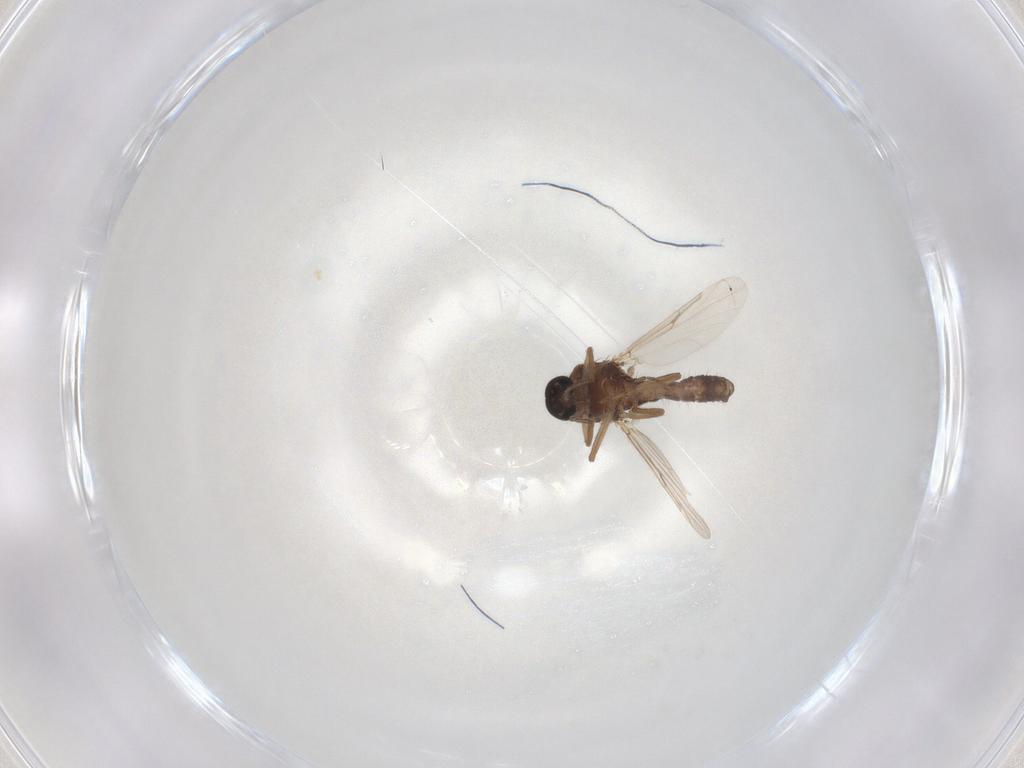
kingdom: Animalia
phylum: Arthropoda
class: Insecta
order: Diptera
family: Ceratopogonidae
